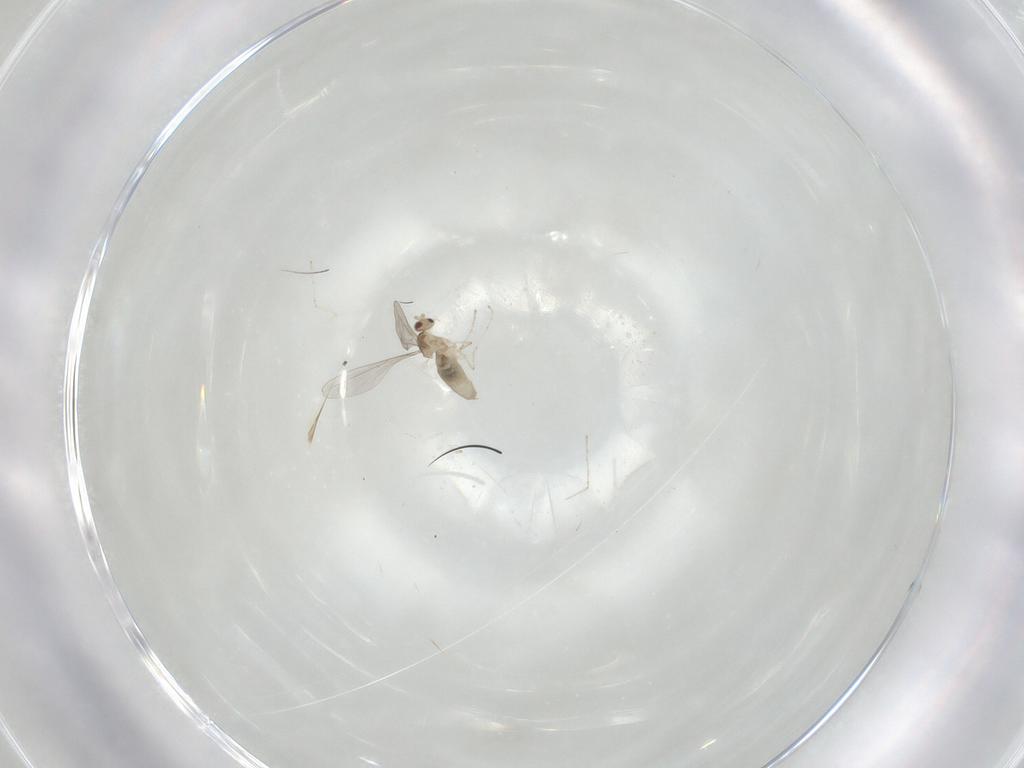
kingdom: Animalia
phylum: Arthropoda
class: Insecta
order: Diptera
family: Cecidomyiidae
